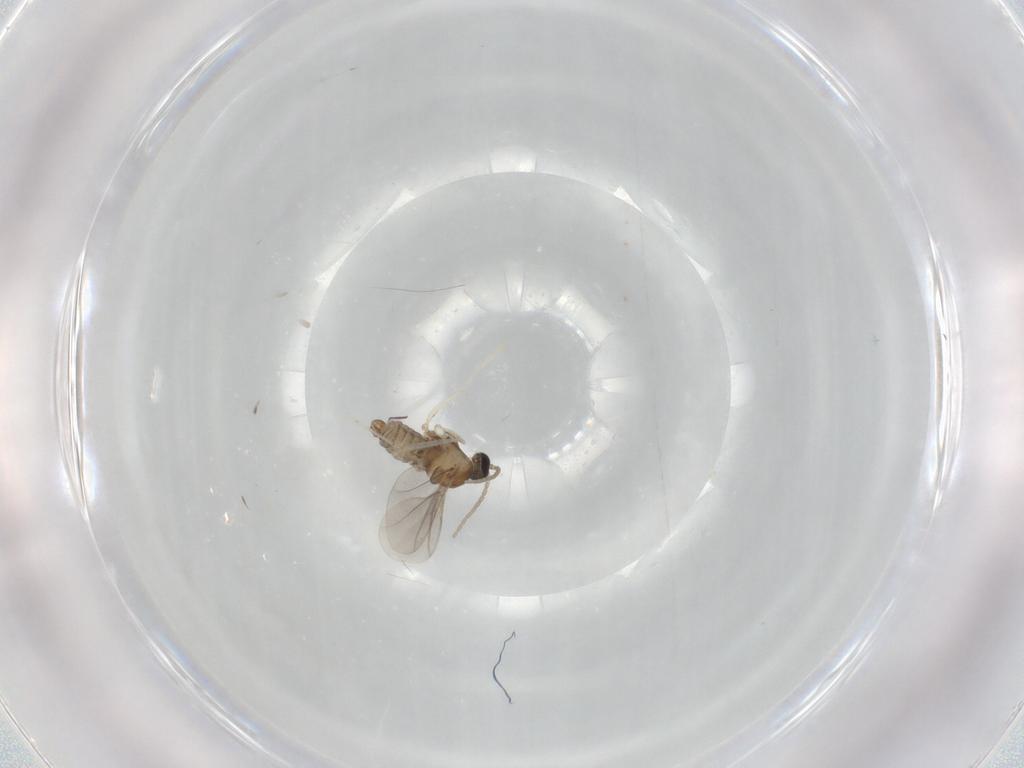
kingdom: Animalia
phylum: Arthropoda
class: Insecta
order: Diptera
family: Cecidomyiidae
